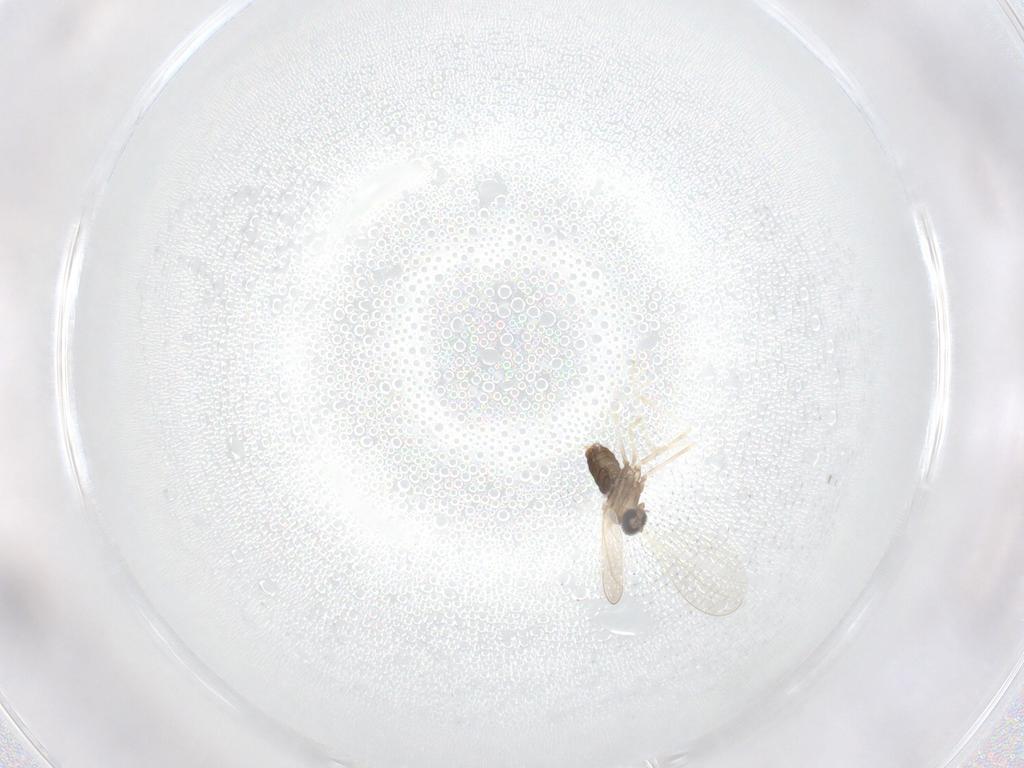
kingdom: Animalia
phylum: Arthropoda
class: Insecta
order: Diptera
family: Cecidomyiidae
